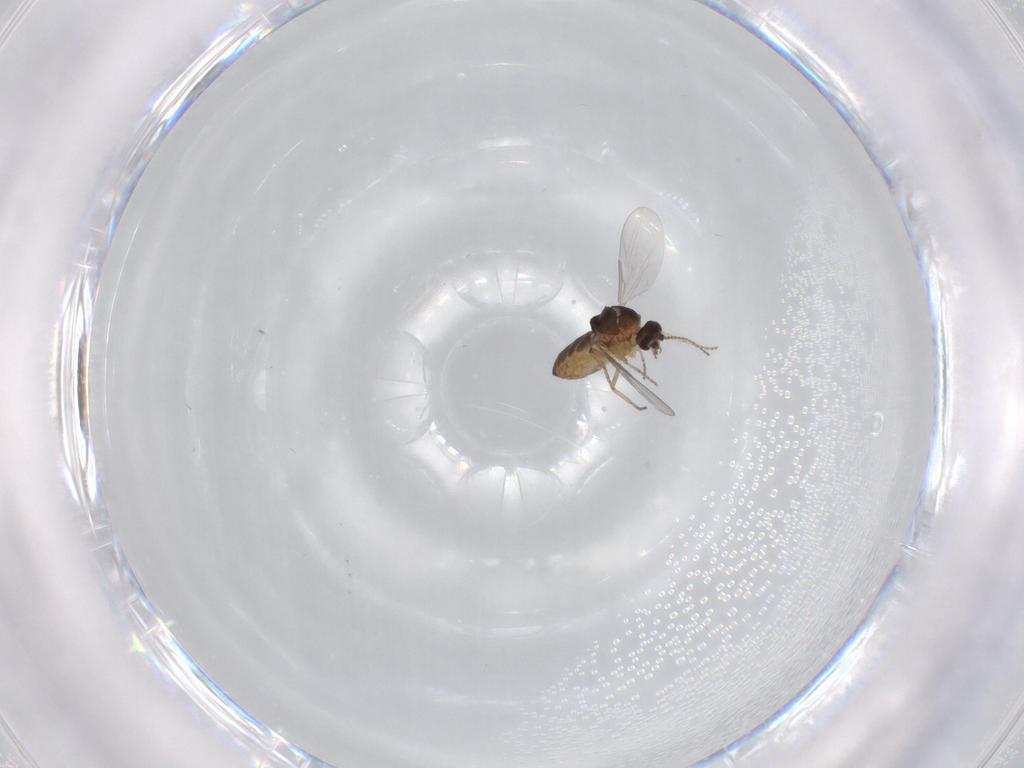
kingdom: Animalia
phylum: Arthropoda
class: Insecta
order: Diptera
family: Ceratopogonidae
